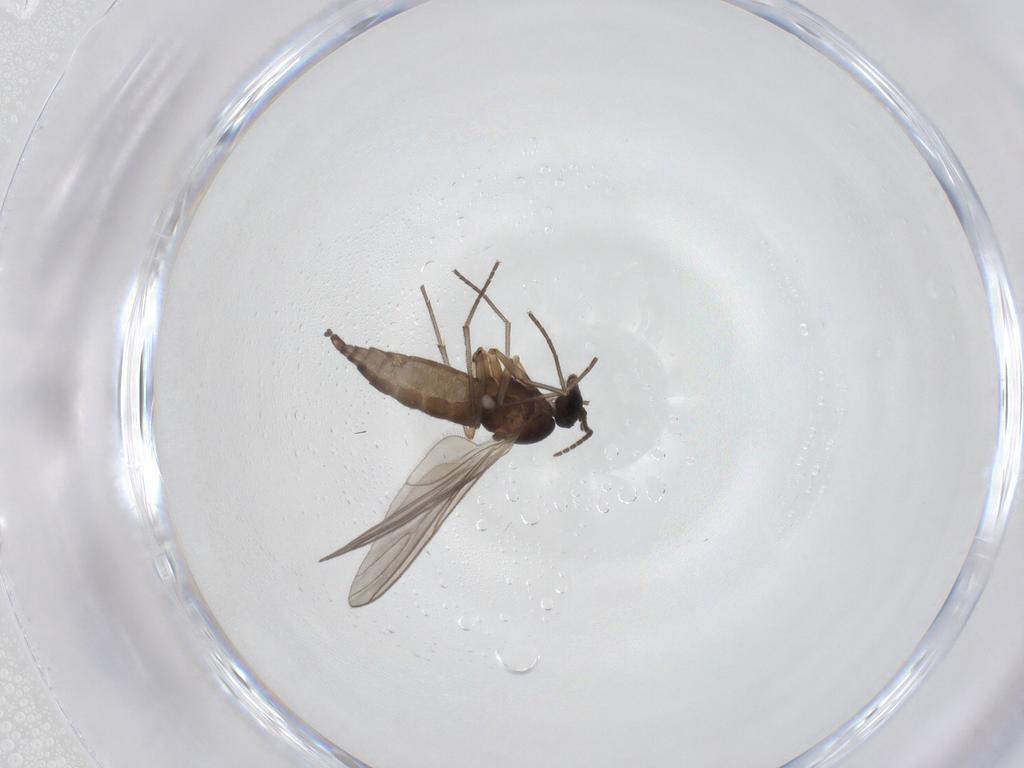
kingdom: Animalia
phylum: Arthropoda
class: Insecta
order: Diptera
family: Sciaridae
